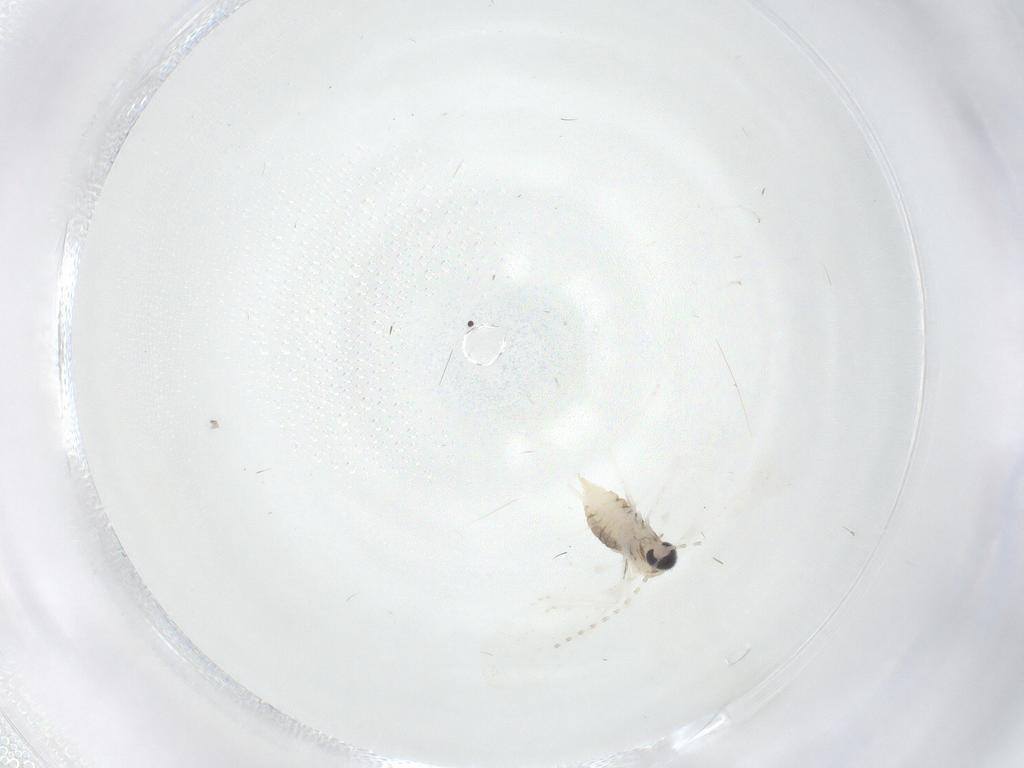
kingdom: Animalia
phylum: Arthropoda
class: Insecta
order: Diptera
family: Cecidomyiidae
